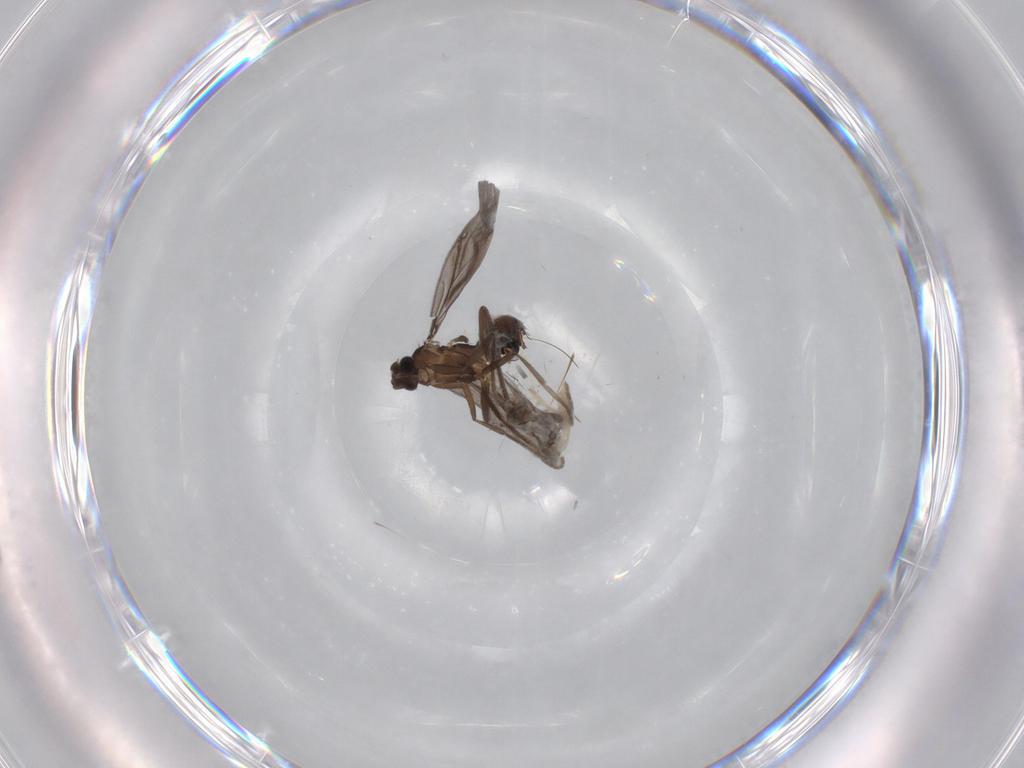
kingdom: Animalia
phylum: Arthropoda
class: Insecta
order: Diptera
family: Phoridae
